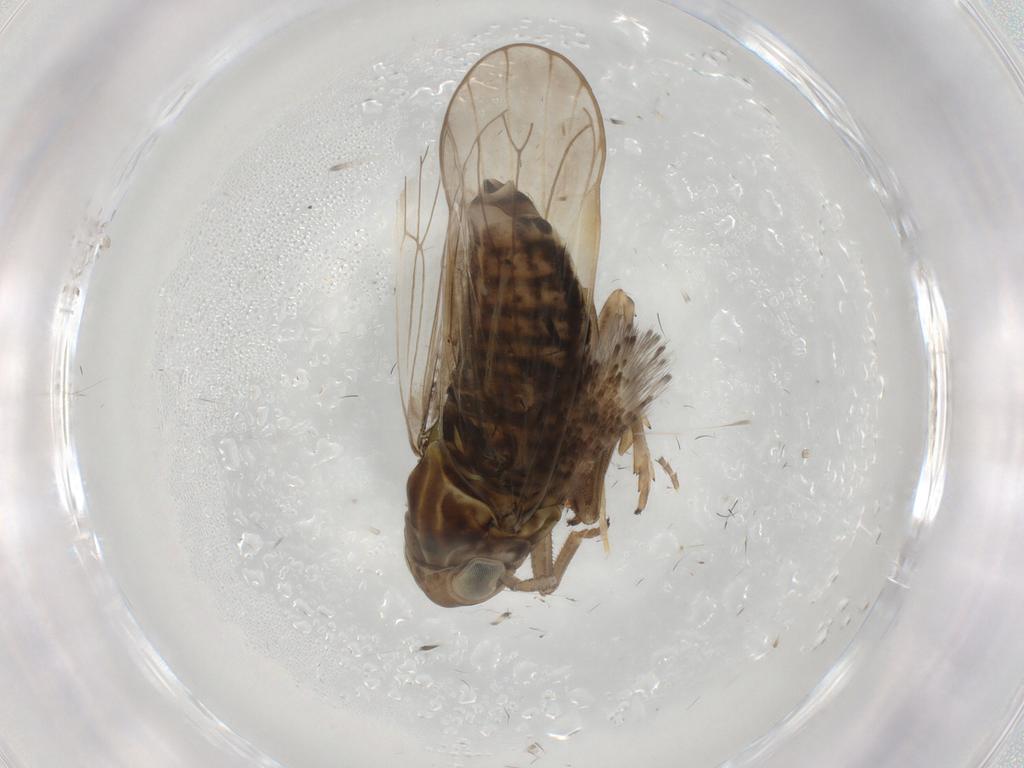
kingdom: Animalia
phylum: Arthropoda
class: Insecta
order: Hemiptera
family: Delphacidae
